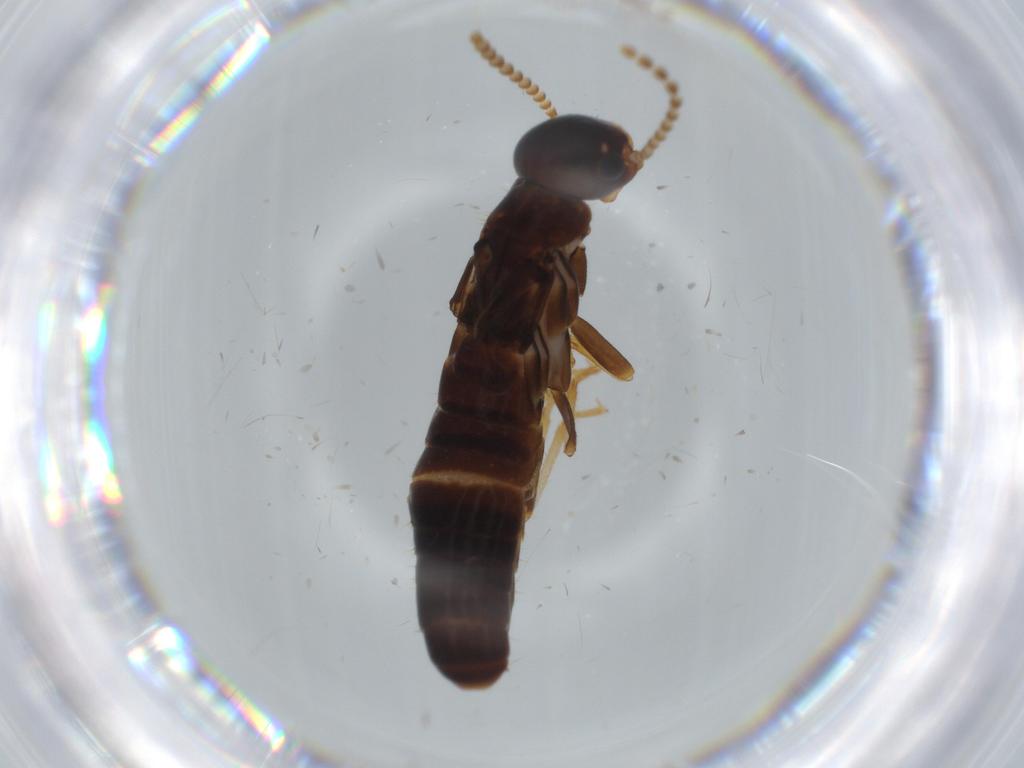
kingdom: Animalia
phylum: Arthropoda
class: Insecta
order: Blattodea
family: Kalotermitidae
